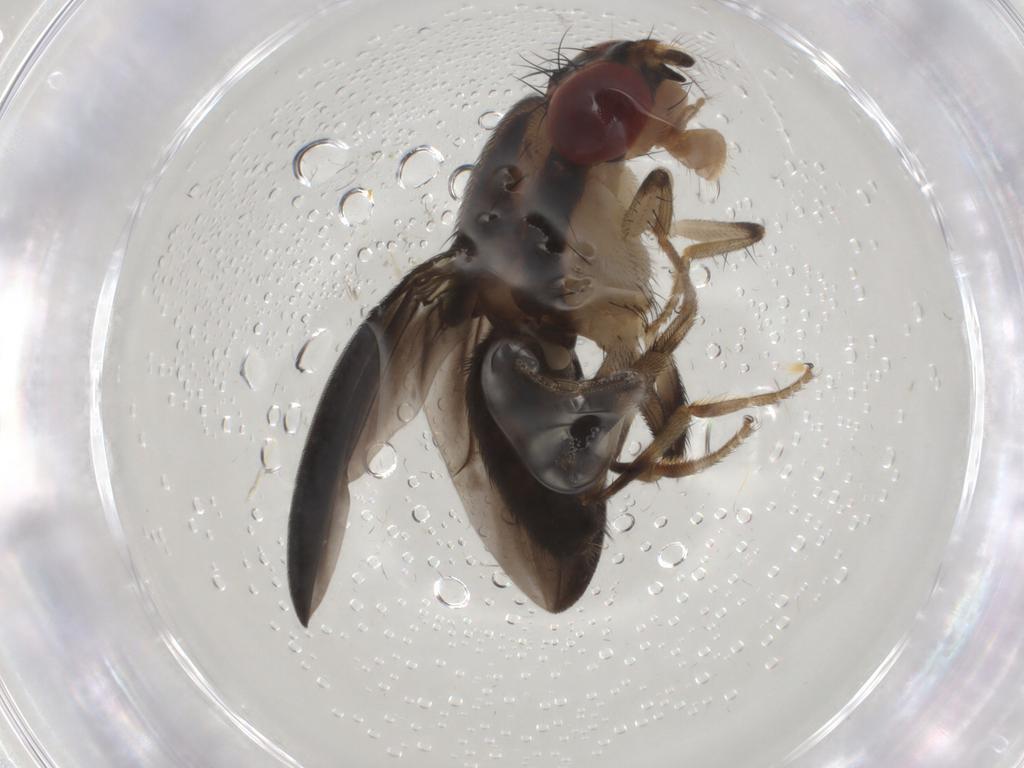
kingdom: Animalia
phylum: Arthropoda
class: Insecta
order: Diptera
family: Drosophilidae
